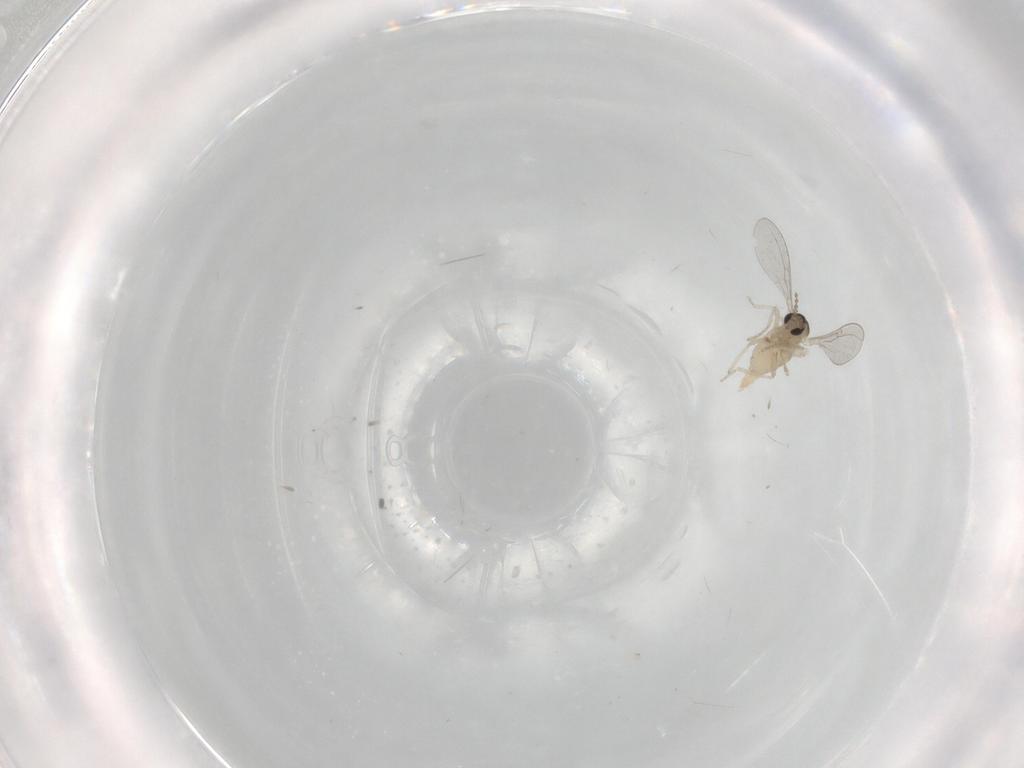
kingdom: Animalia
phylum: Arthropoda
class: Insecta
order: Diptera
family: Cecidomyiidae
